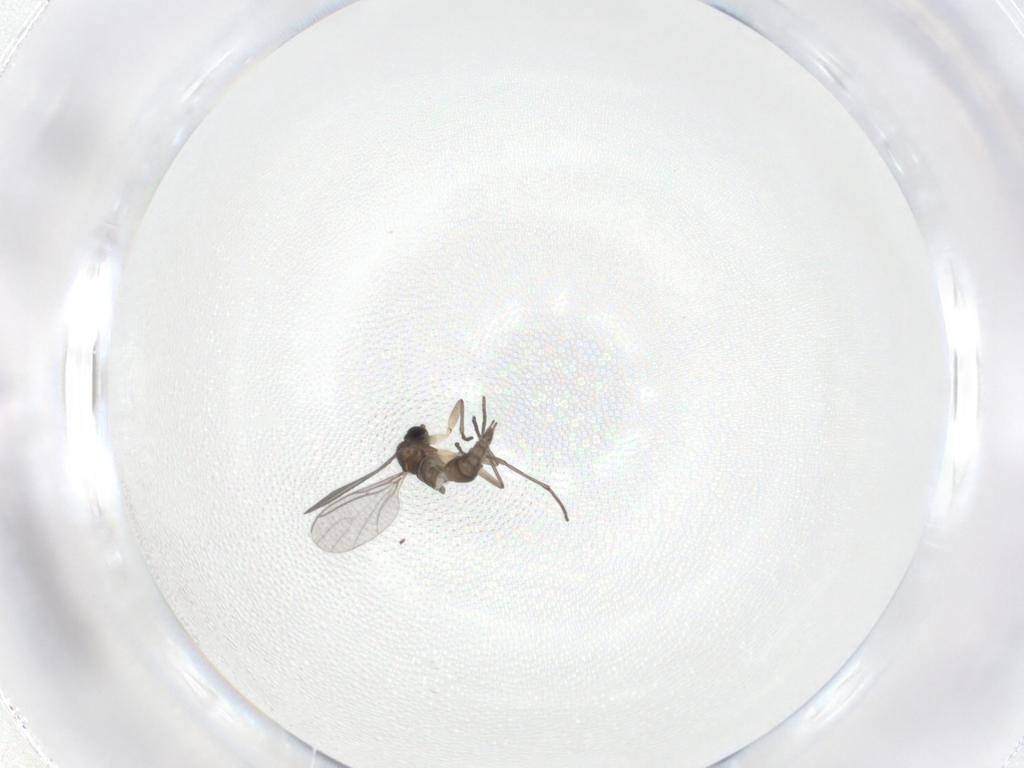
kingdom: Animalia
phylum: Arthropoda
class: Insecta
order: Diptera
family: Sciaridae
